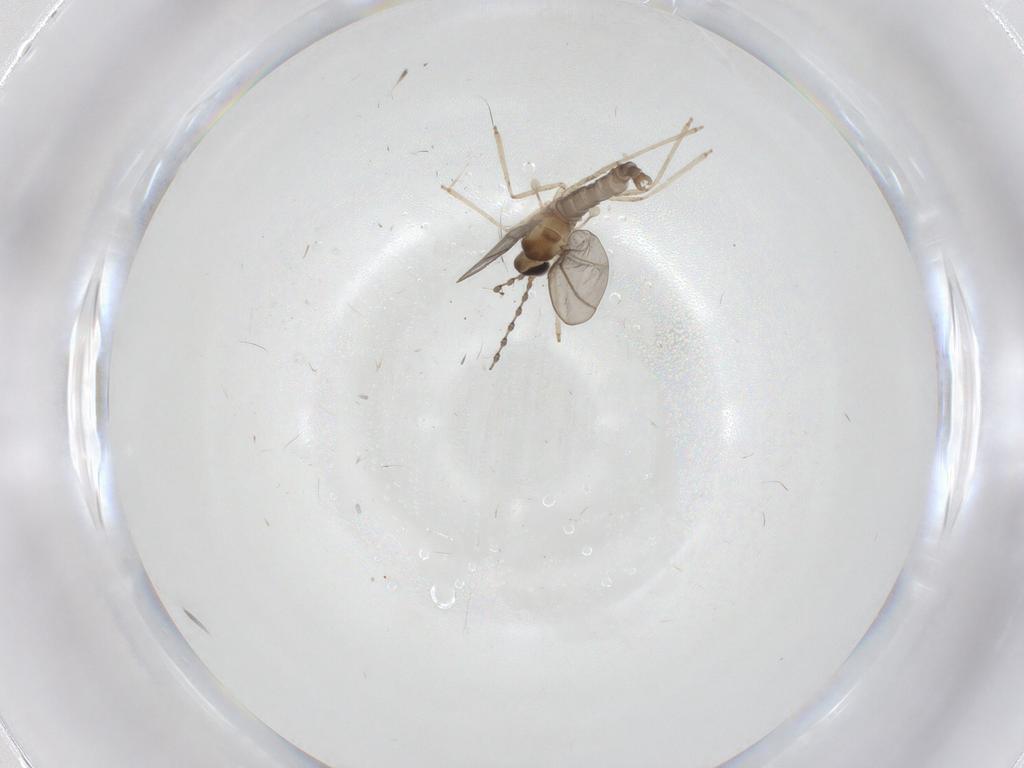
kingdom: Animalia
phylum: Arthropoda
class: Insecta
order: Diptera
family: Cecidomyiidae
